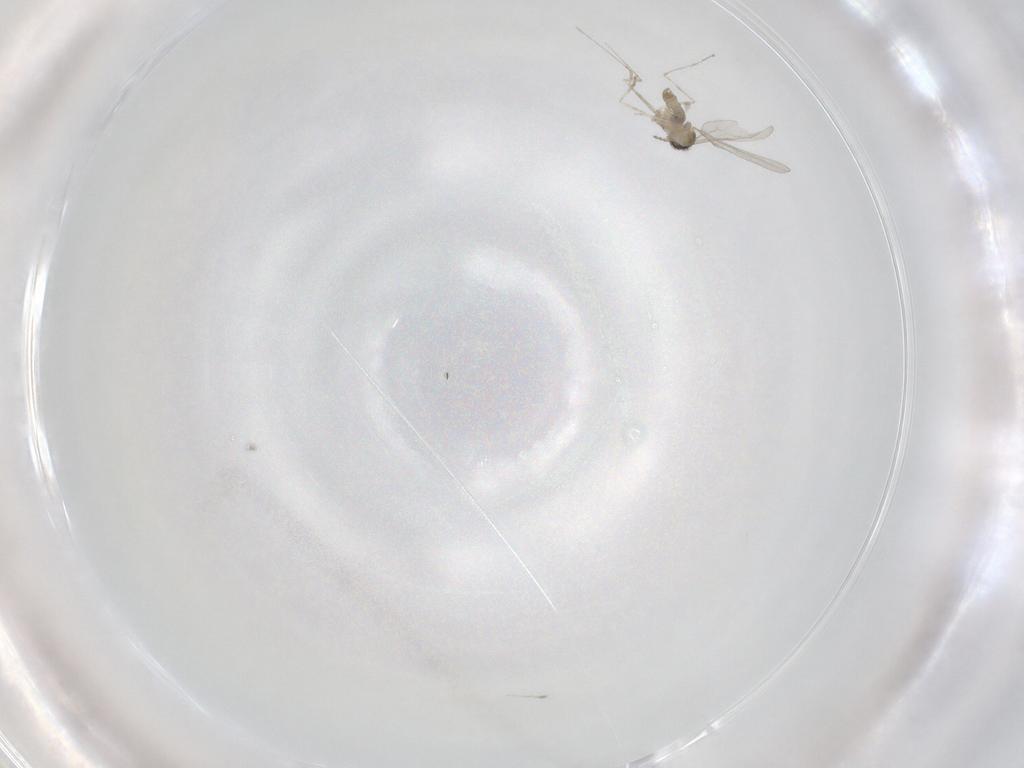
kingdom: Animalia
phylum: Arthropoda
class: Insecta
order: Diptera
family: Cecidomyiidae
